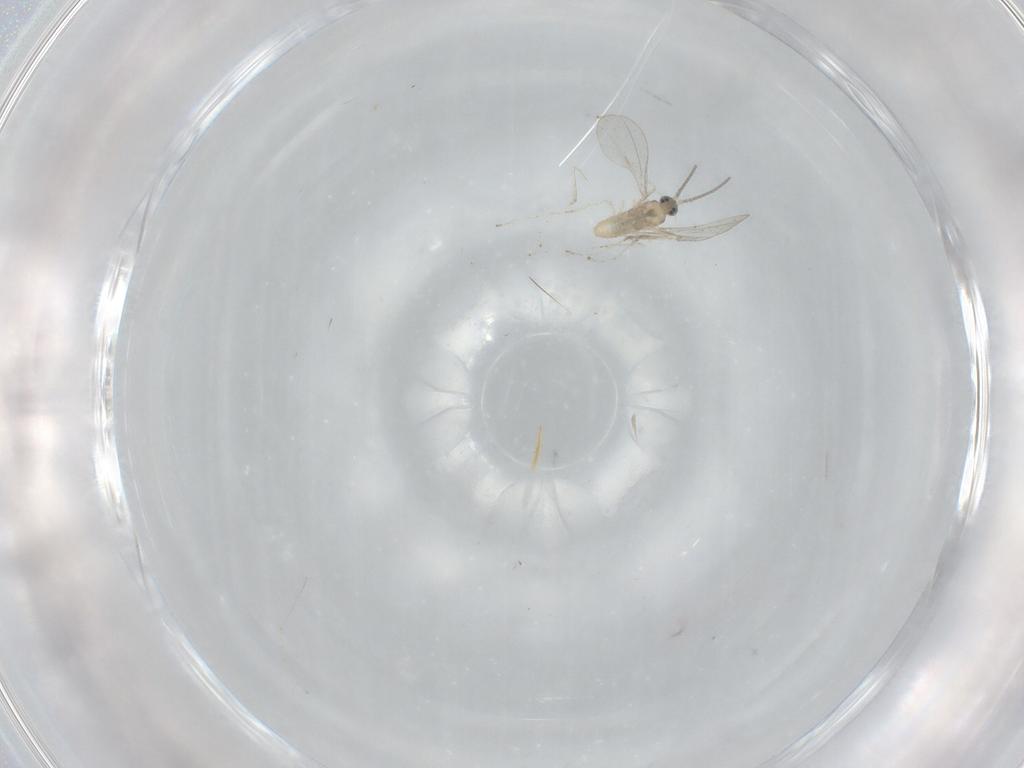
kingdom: Animalia
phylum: Arthropoda
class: Insecta
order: Diptera
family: Cecidomyiidae
